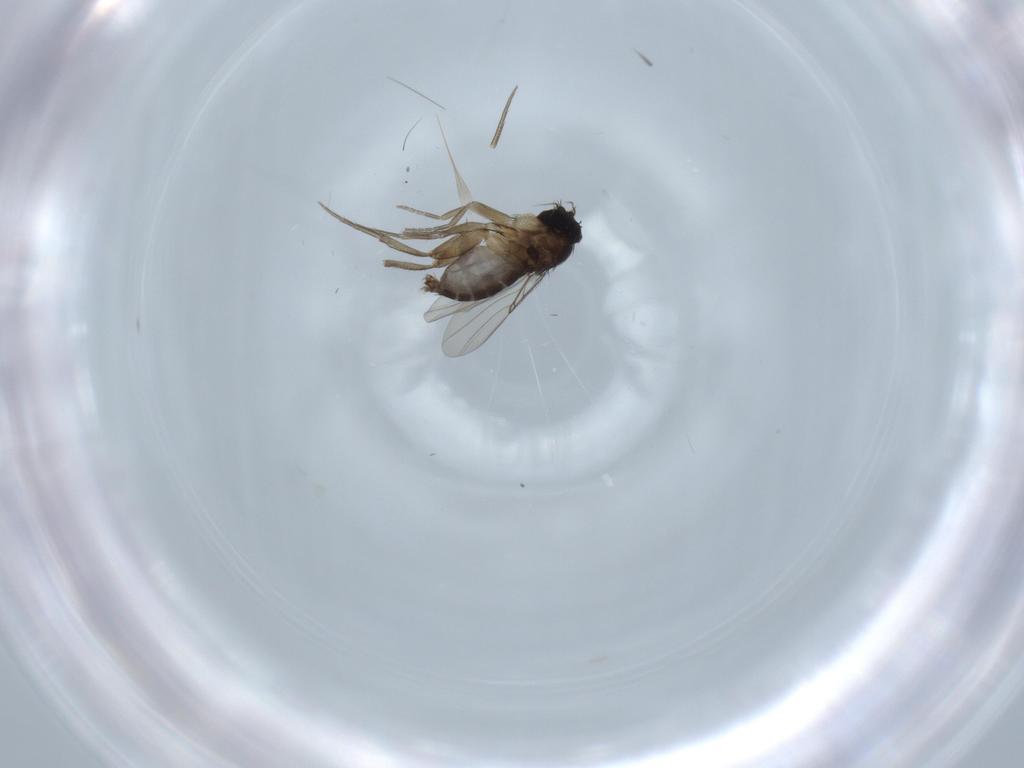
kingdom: Animalia
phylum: Arthropoda
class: Insecta
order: Diptera
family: Phoridae
